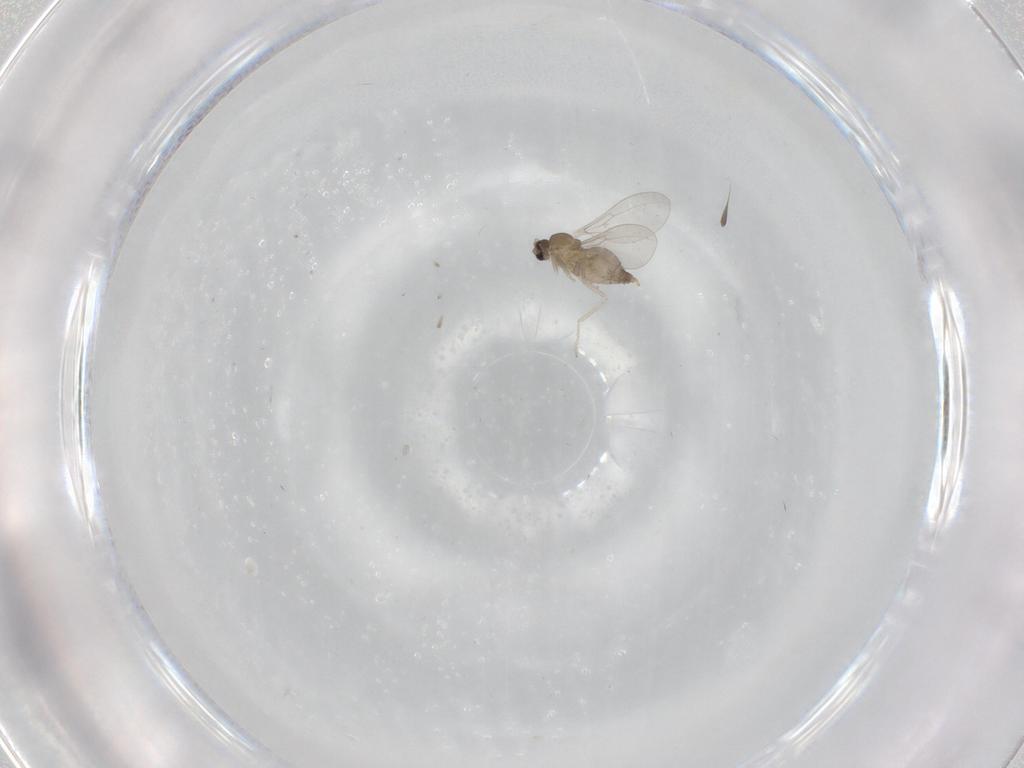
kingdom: Animalia
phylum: Arthropoda
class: Insecta
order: Diptera
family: Cecidomyiidae
